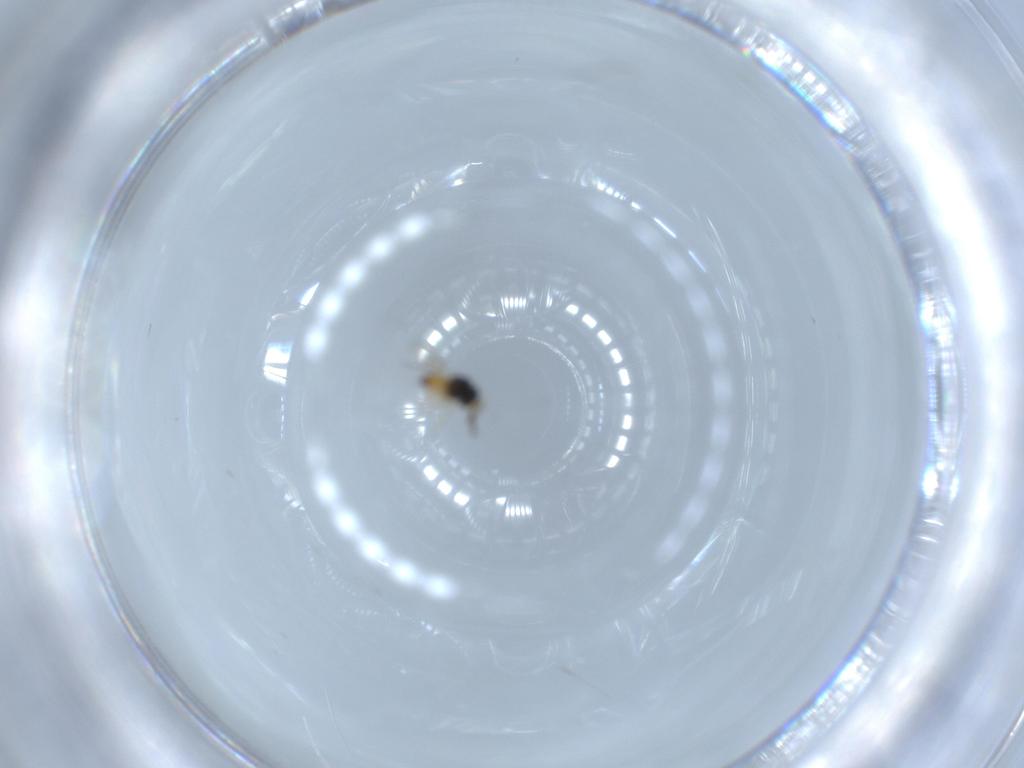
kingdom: Animalia
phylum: Arthropoda
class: Insecta
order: Hymenoptera
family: Scelionidae
